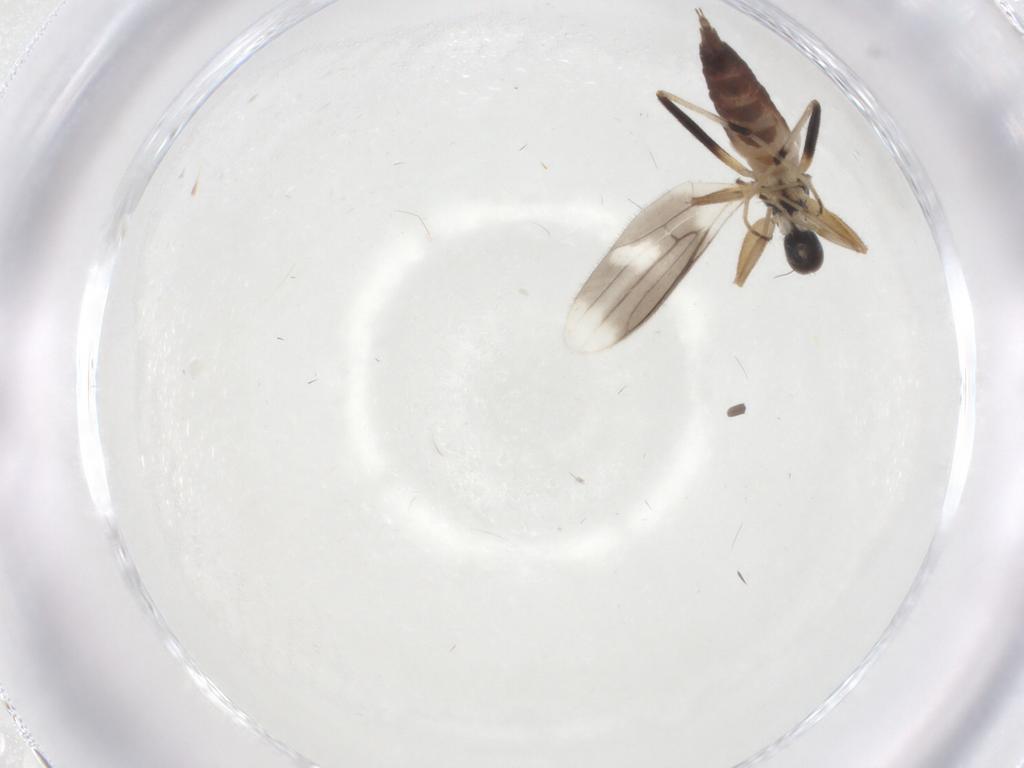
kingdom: Animalia
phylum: Arthropoda
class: Insecta
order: Diptera
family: Hybotidae
